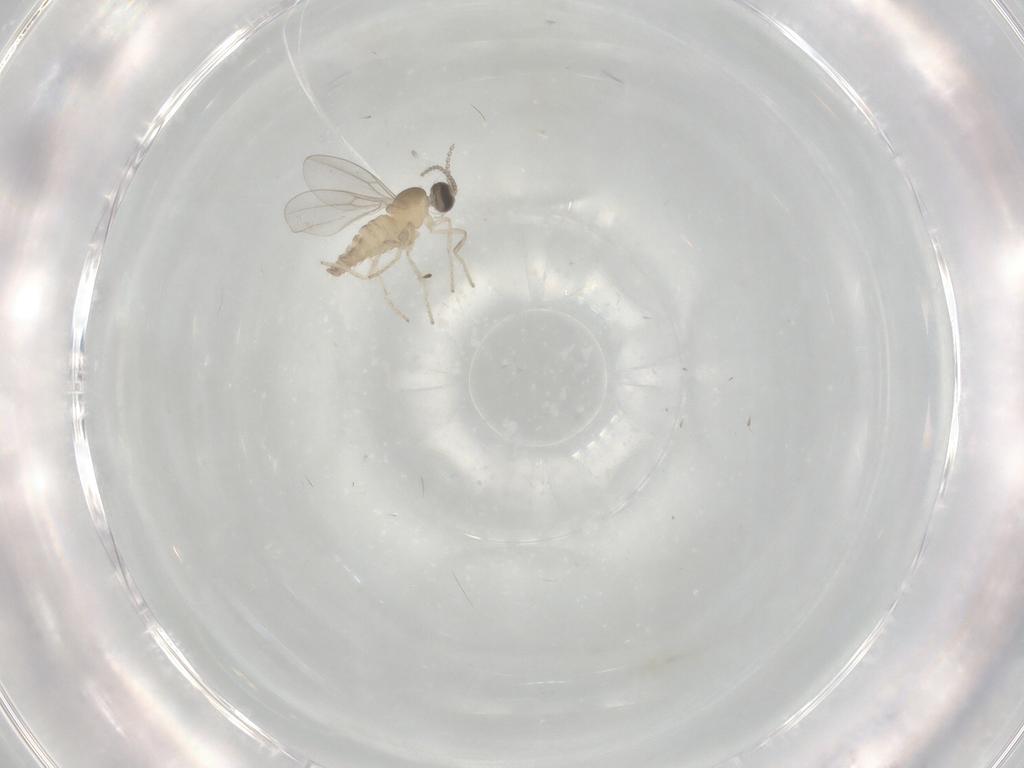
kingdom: Animalia
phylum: Arthropoda
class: Insecta
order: Diptera
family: Cecidomyiidae
